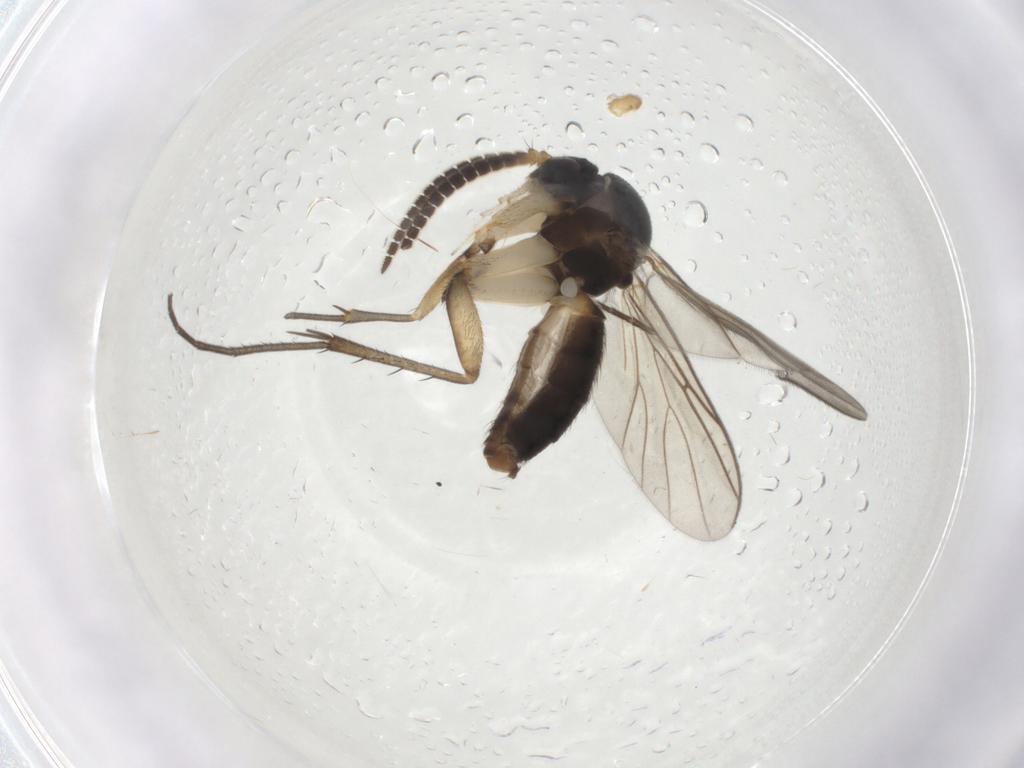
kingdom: Animalia
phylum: Arthropoda
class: Insecta
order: Diptera
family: Mycetophilidae
